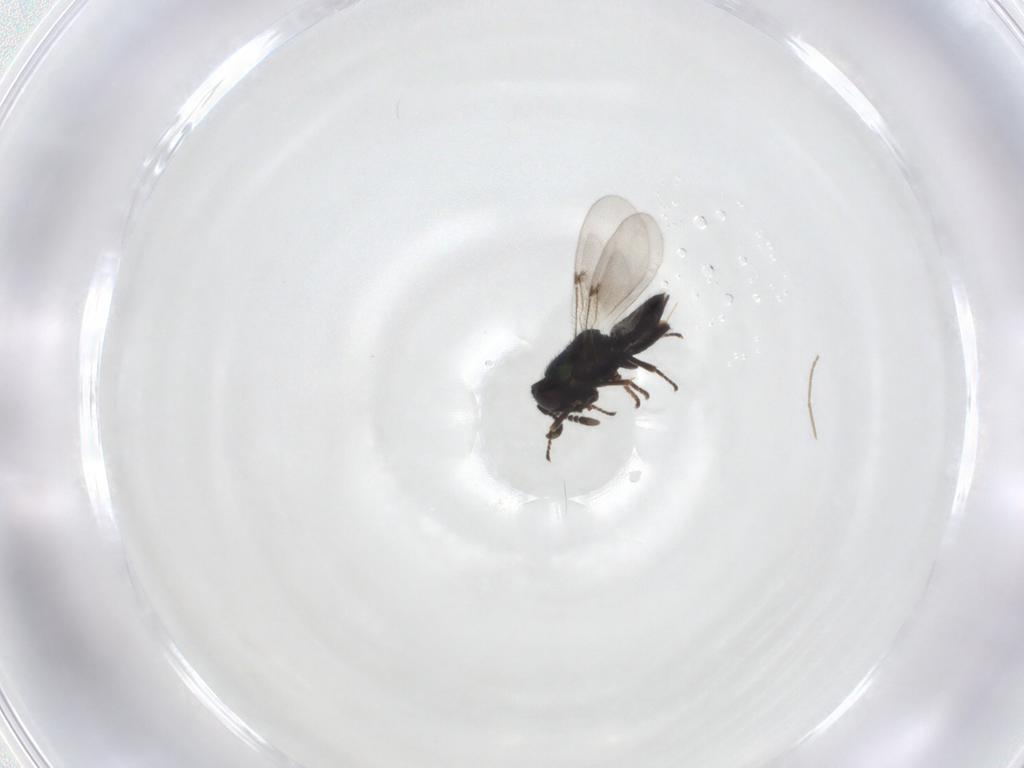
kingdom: Animalia
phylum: Arthropoda
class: Insecta
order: Hymenoptera
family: Encyrtidae
